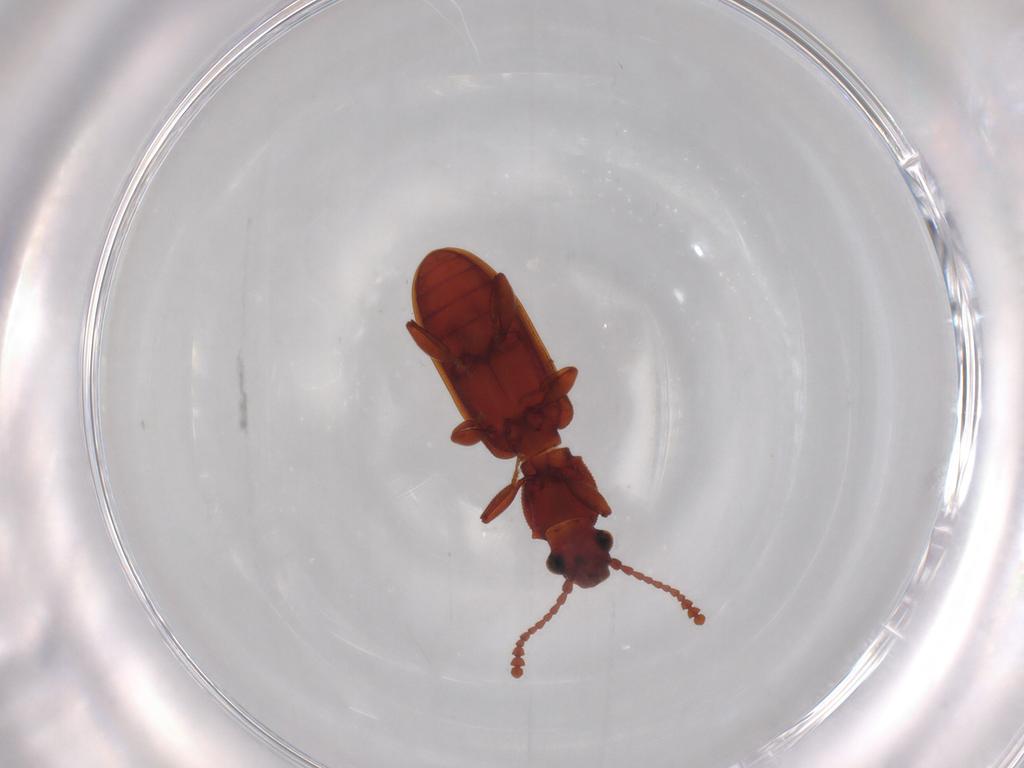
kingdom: Animalia
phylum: Arthropoda
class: Insecta
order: Coleoptera
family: Silvanidae
